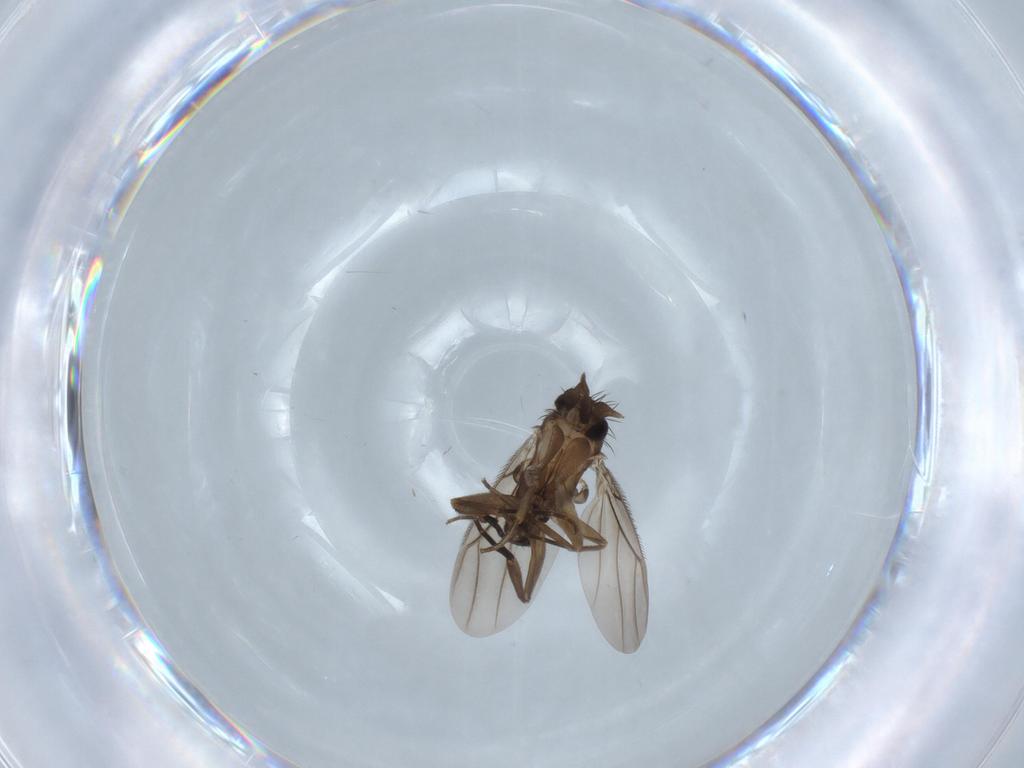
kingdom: Animalia
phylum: Arthropoda
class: Insecta
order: Diptera
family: Phoridae
